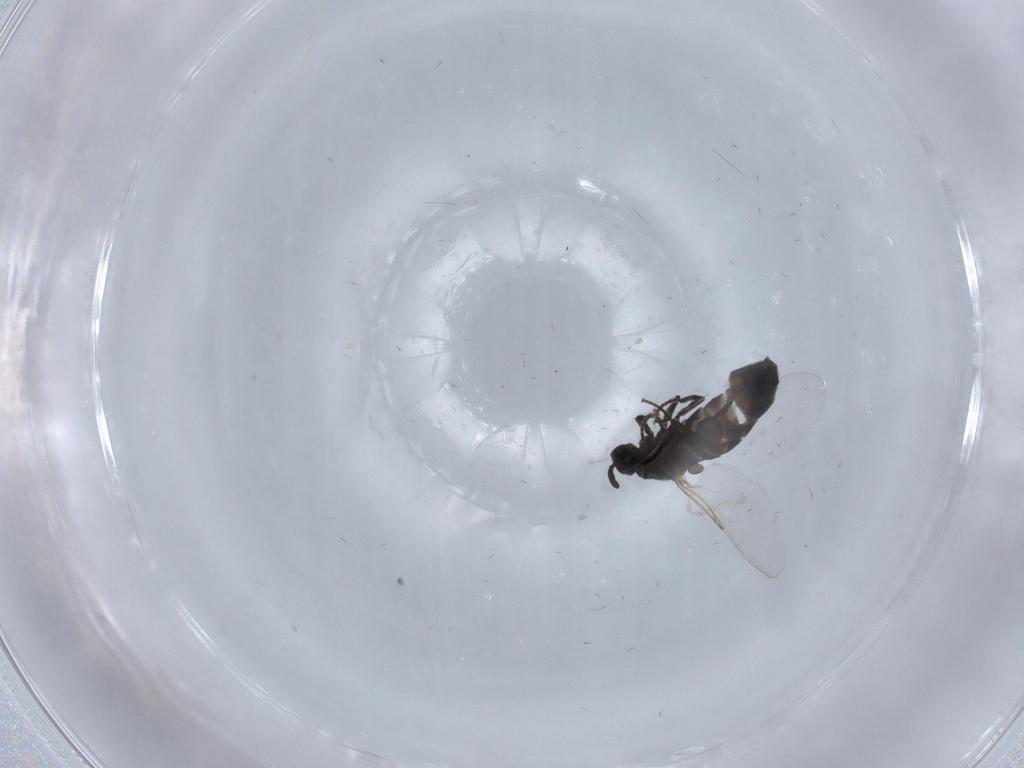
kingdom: Animalia
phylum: Arthropoda
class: Insecta
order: Diptera
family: Scatopsidae
